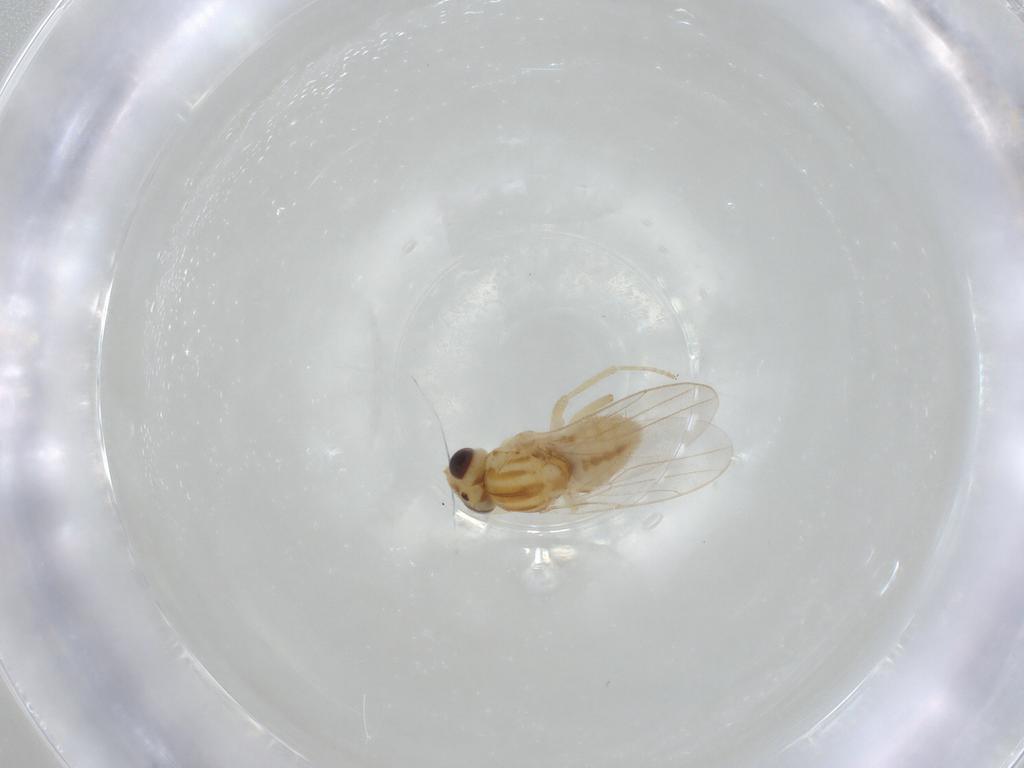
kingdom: Animalia
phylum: Arthropoda
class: Insecta
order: Diptera
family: Chloropidae
